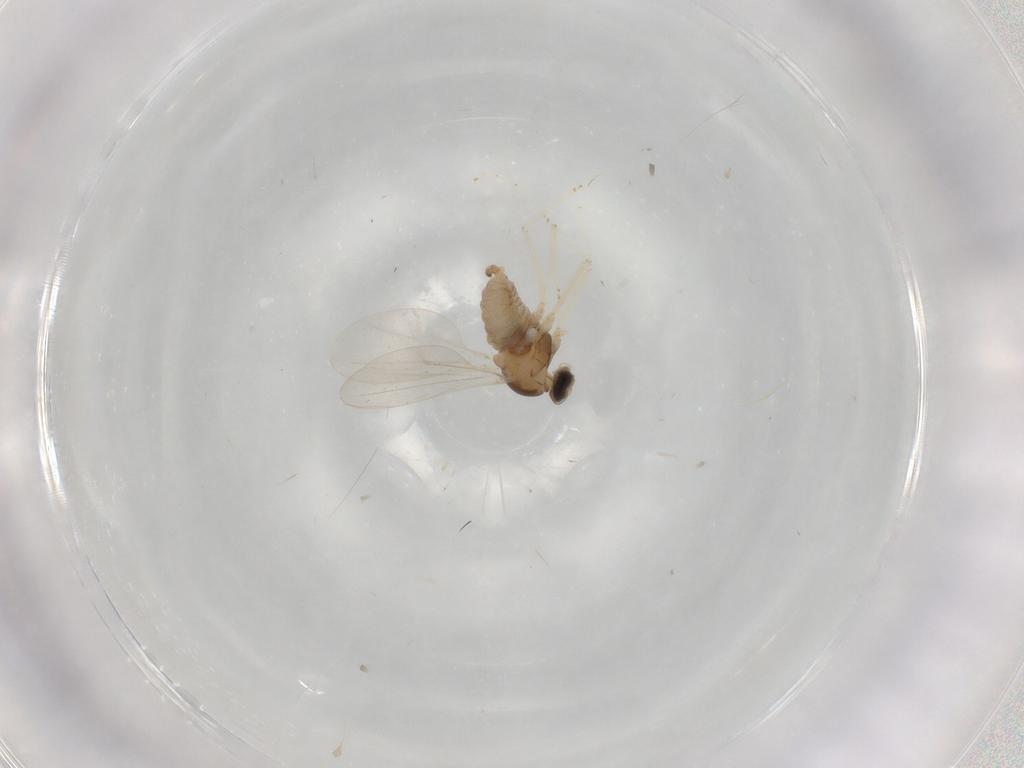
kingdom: Animalia
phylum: Arthropoda
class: Insecta
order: Diptera
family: Cecidomyiidae
